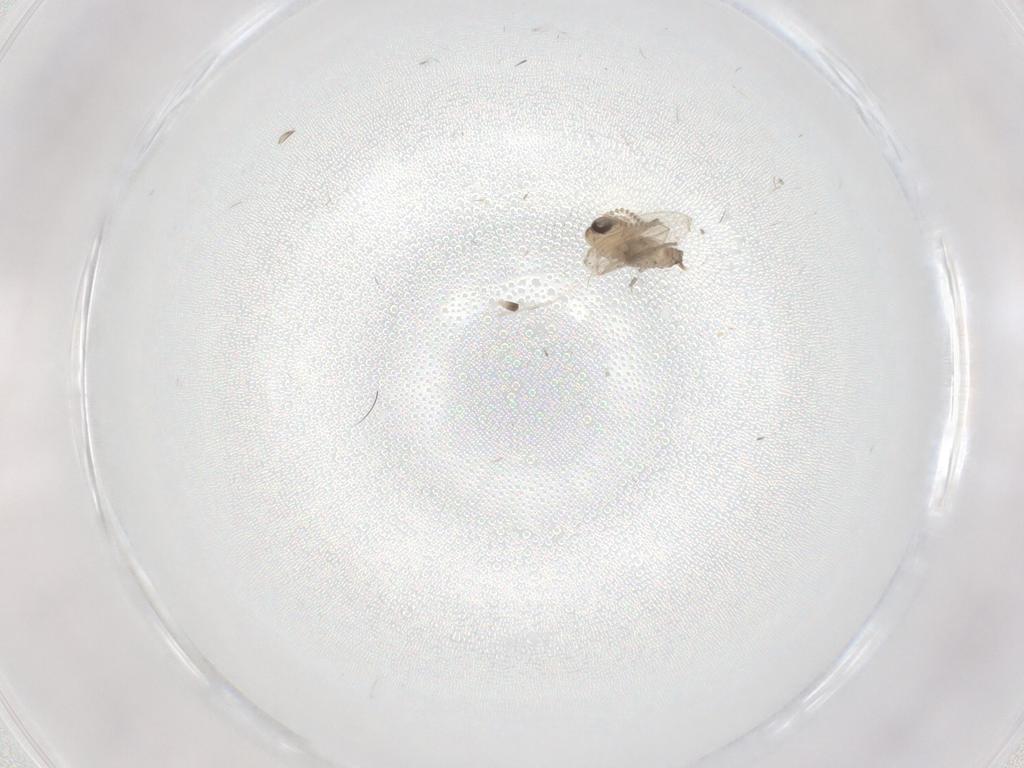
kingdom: Animalia
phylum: Arthropoda
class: Insecta
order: Diptera
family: Psychodidae
